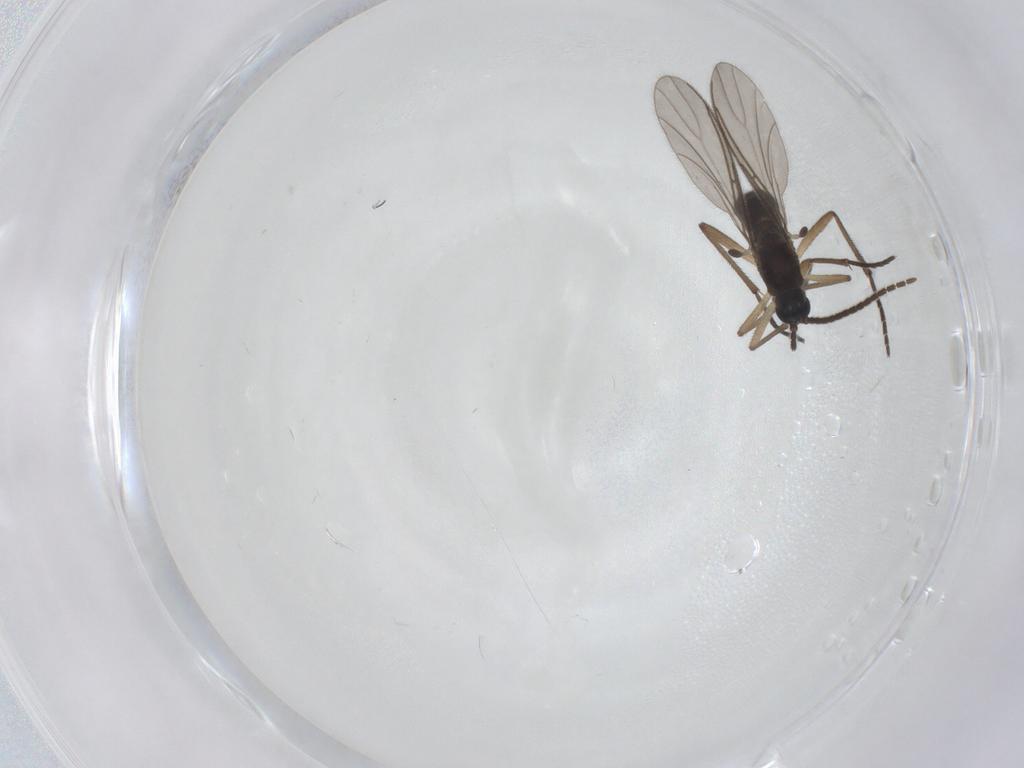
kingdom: Animalia
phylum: Arthropoda
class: Insecta
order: Diptera
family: Sciaridae
